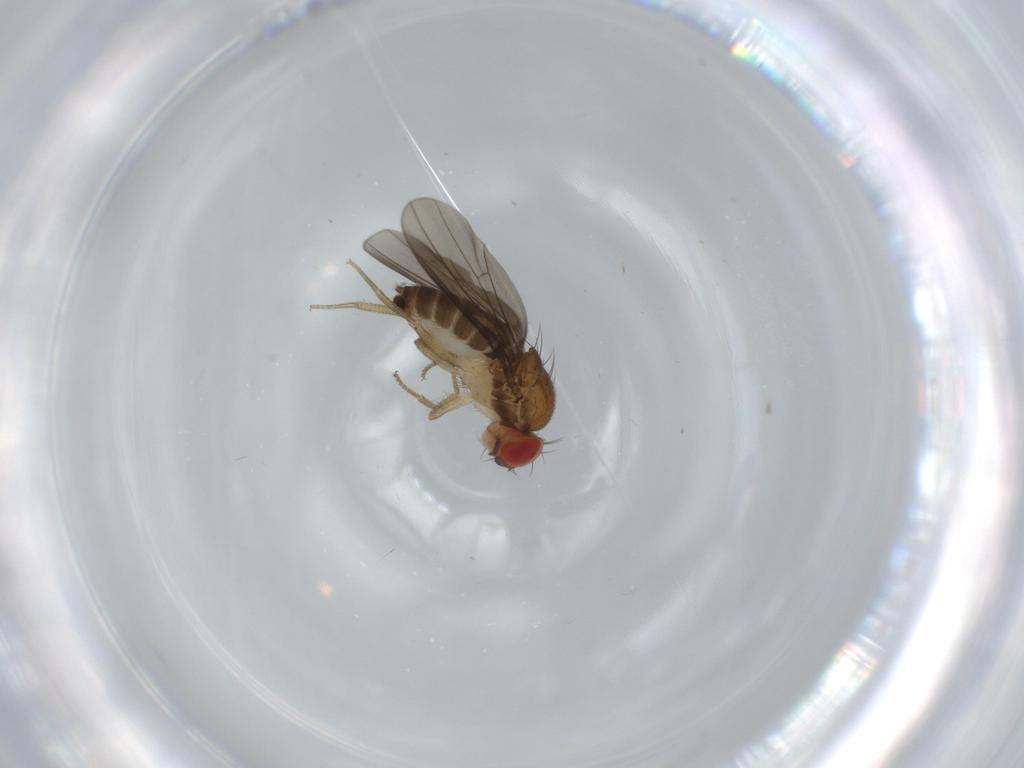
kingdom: Animalia
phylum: Arthropoda
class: Insecta
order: Diptera
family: Drosophilidae
